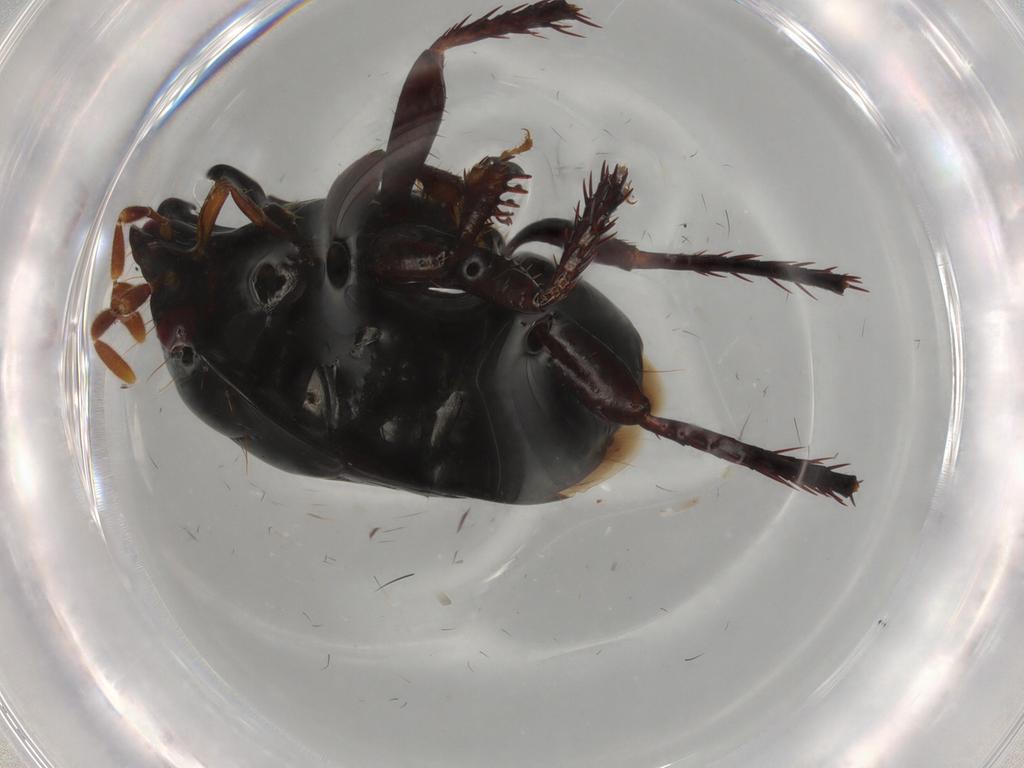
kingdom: Animalia
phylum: Arthropoda
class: Insecta
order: Hemiptera
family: Cydnidae
